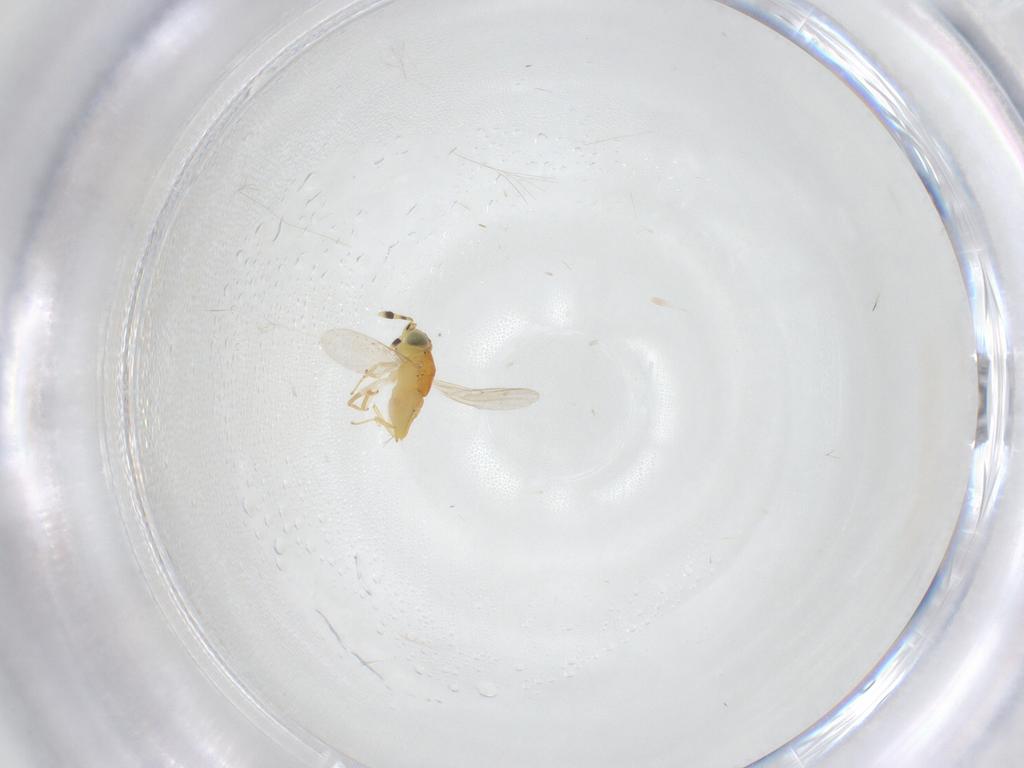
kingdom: Animalia
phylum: Arthropoda
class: Insecta
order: Hymenoptera
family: Encyrtidae
